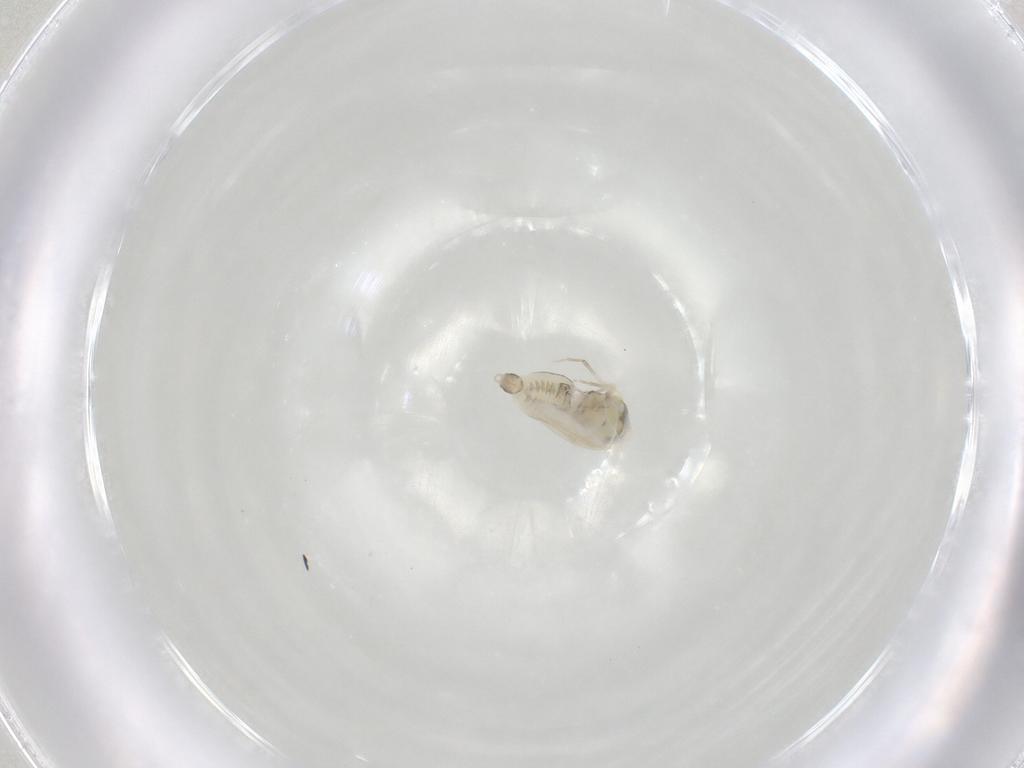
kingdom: Animalia
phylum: Arthropoda
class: Insecta
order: Hemiptera
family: Aleyrodidae
